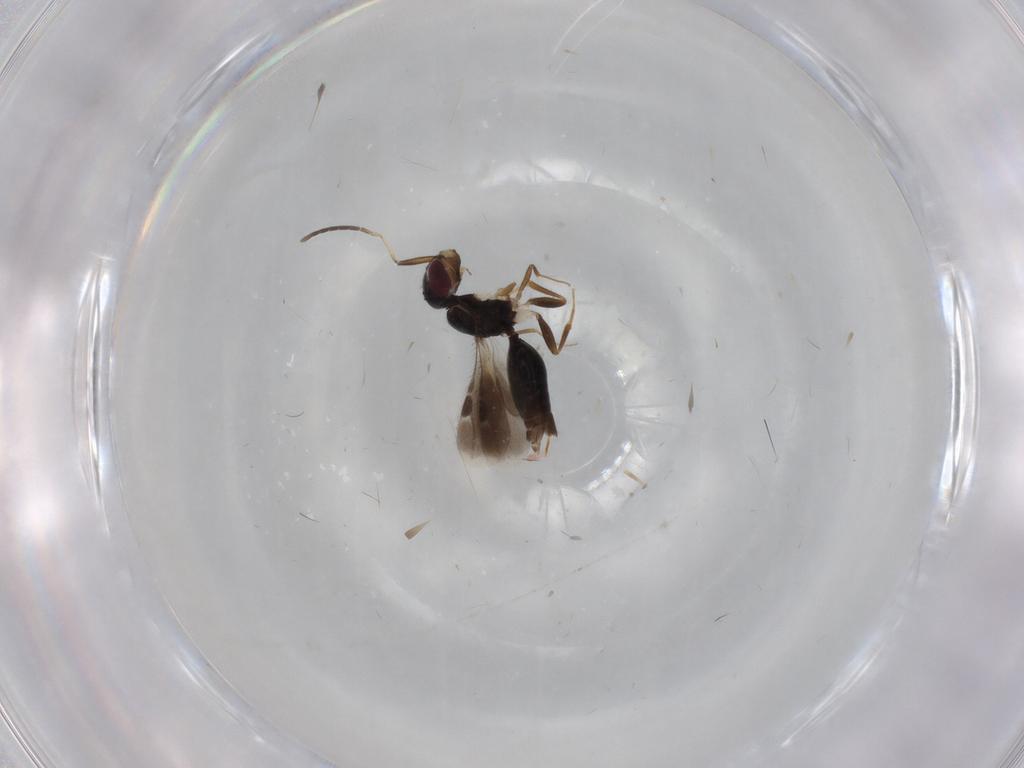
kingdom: Animalia
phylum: Arthropoda
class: Insecta
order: Hymenoptera
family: Megaspilidae
